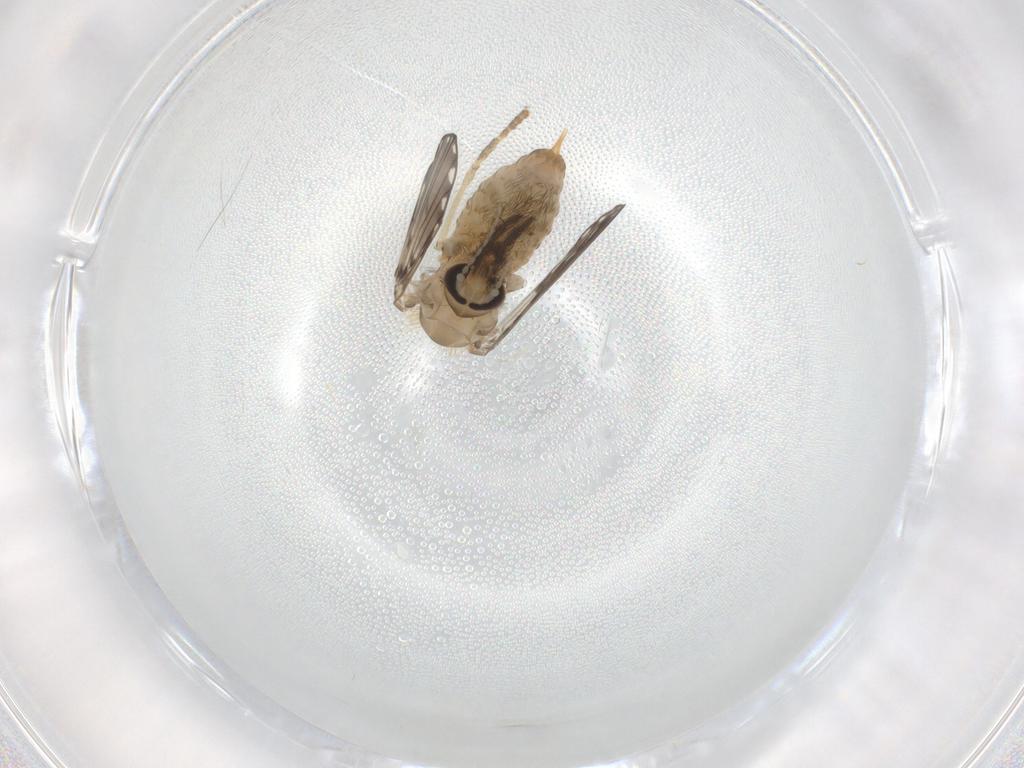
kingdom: Animalia
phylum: Arthropoda
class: Insecta
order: Diptera
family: Psychodidae
